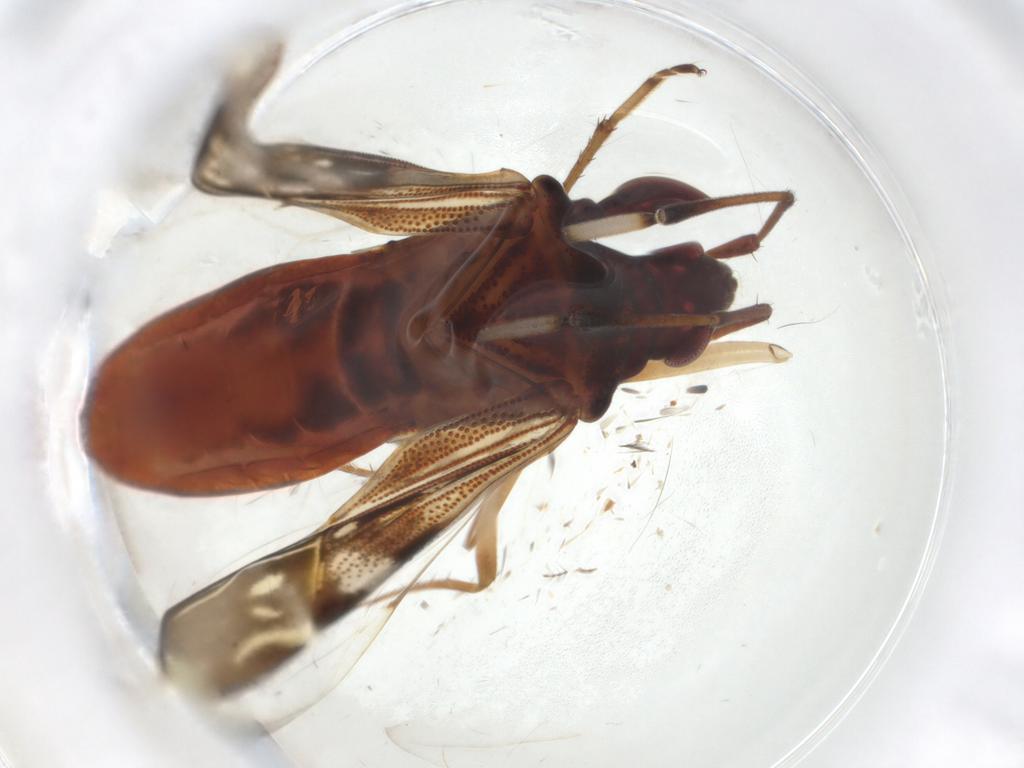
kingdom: Animalia
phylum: Arthropoda
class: Insecta
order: Hemiptera
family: Rhyparochromidae
